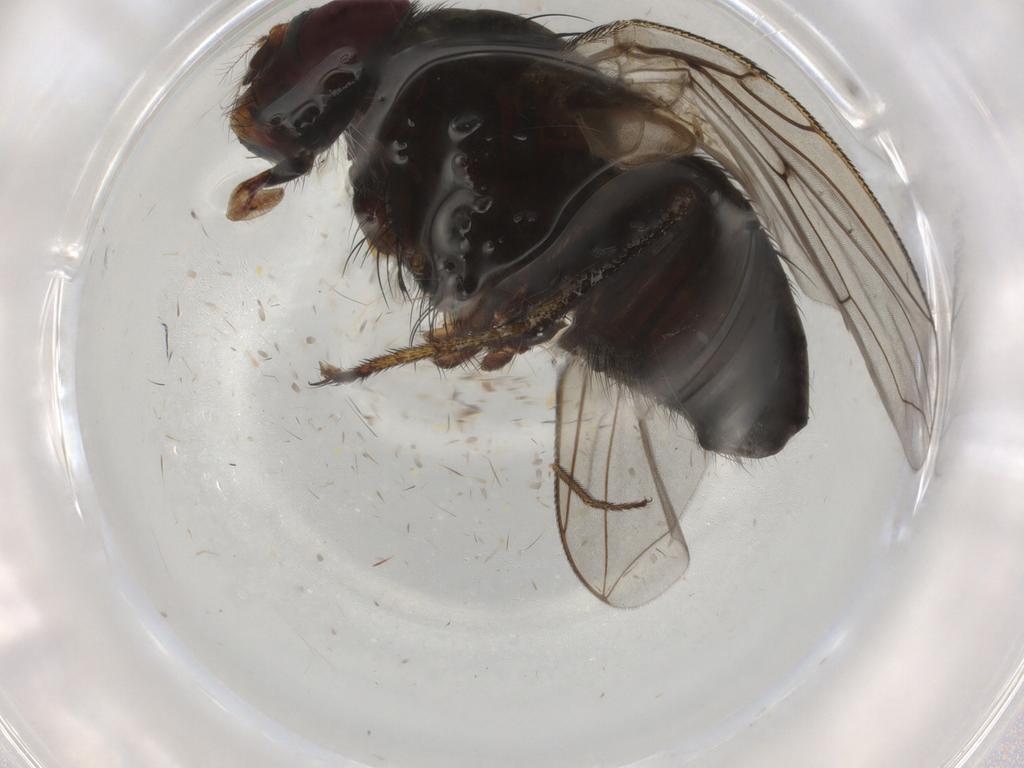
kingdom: Animalia
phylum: Arthropoda
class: Insecta
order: Diptera
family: Tachinidae
